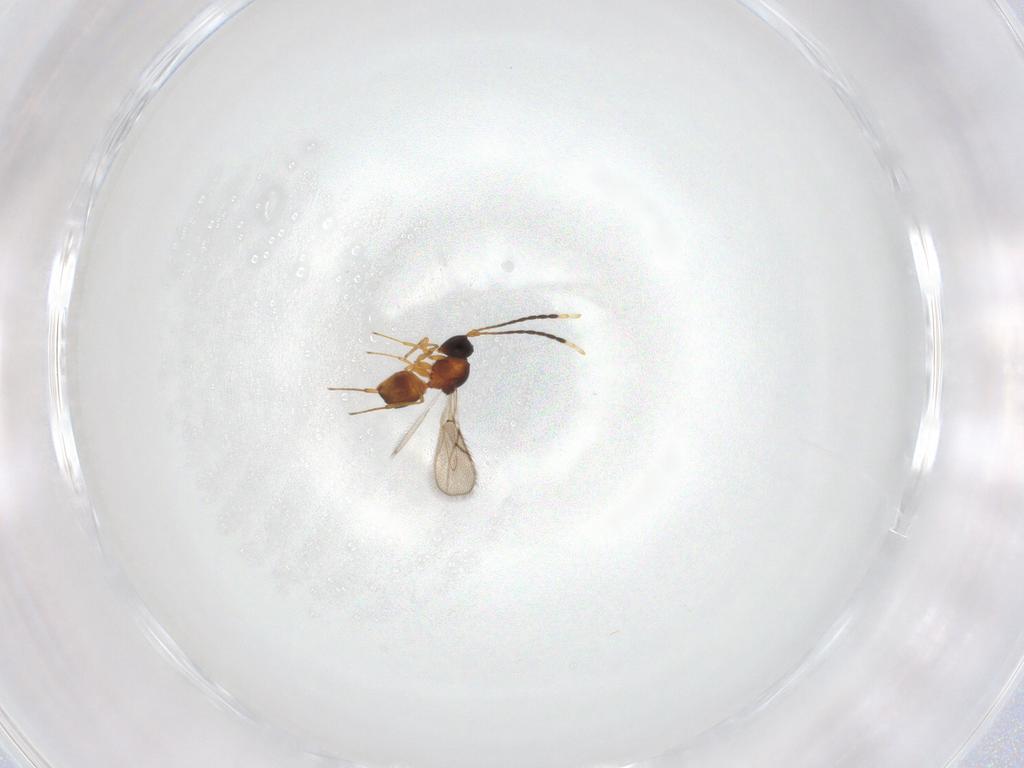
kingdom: Animalia
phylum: Arthropoda
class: Insecta
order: Hymenoptera
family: Figitidae
